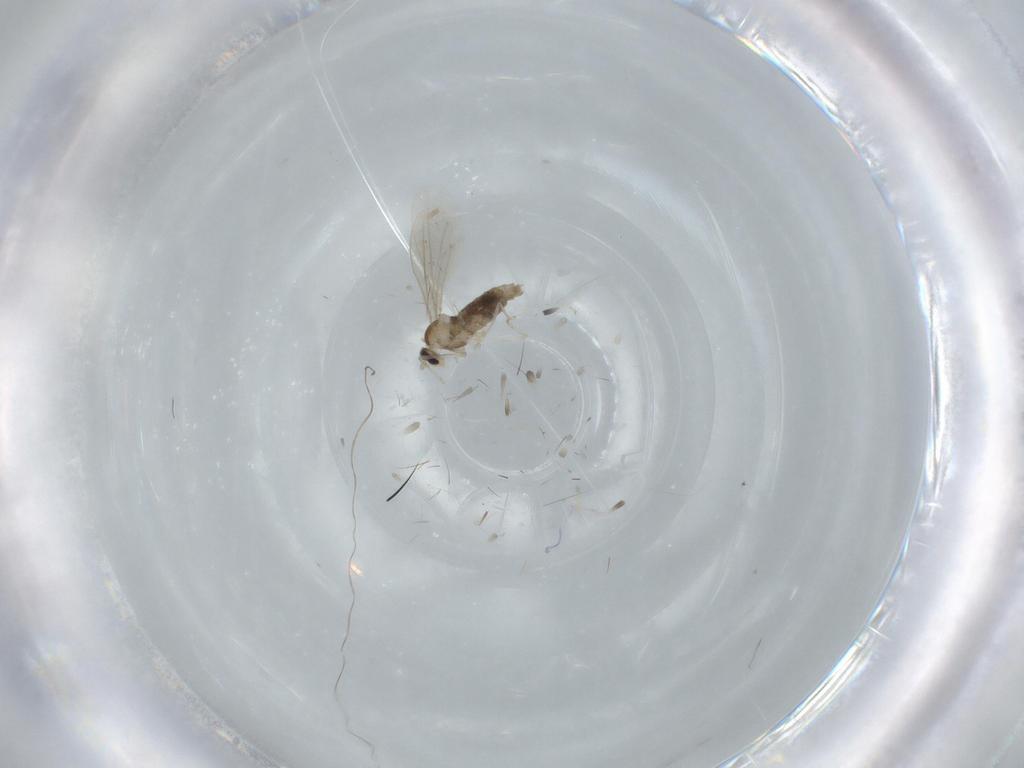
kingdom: Animalia
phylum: Arthropoda
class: Insecta
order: Diptera
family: Cecidomyiidae
